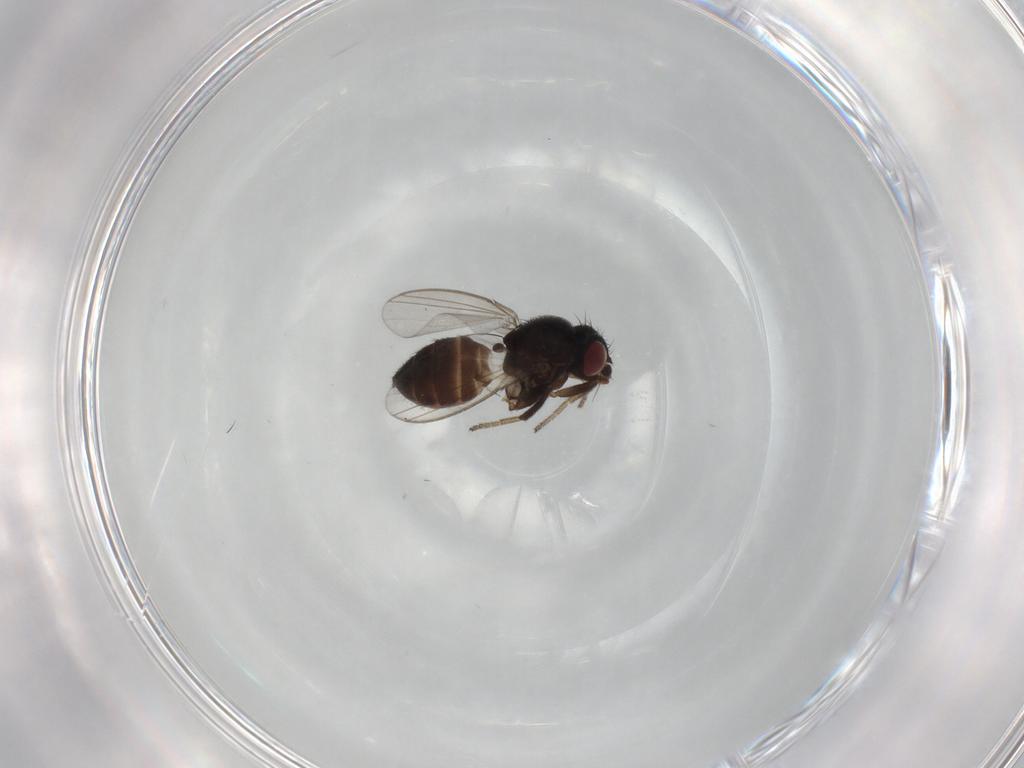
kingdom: Animalia
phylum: Arthropoda
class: Insecta
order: Diptera
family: Milichiidae
